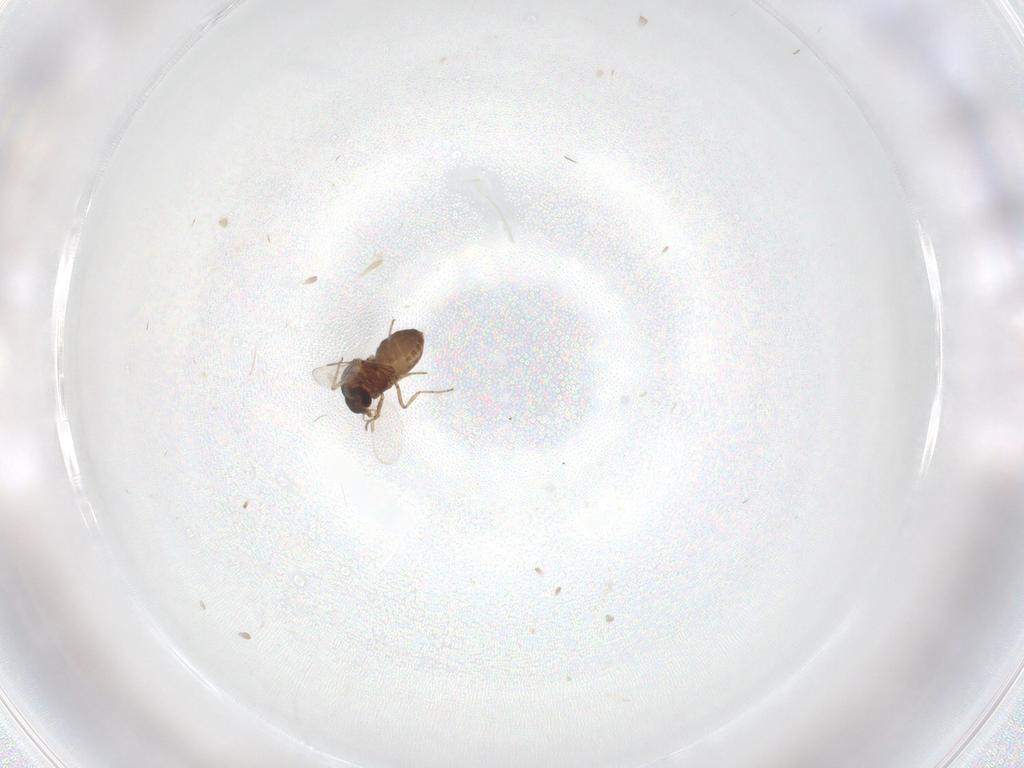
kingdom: Animalia
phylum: Arthropoda
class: Insecta
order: Diptera
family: Ceratopogonidae
